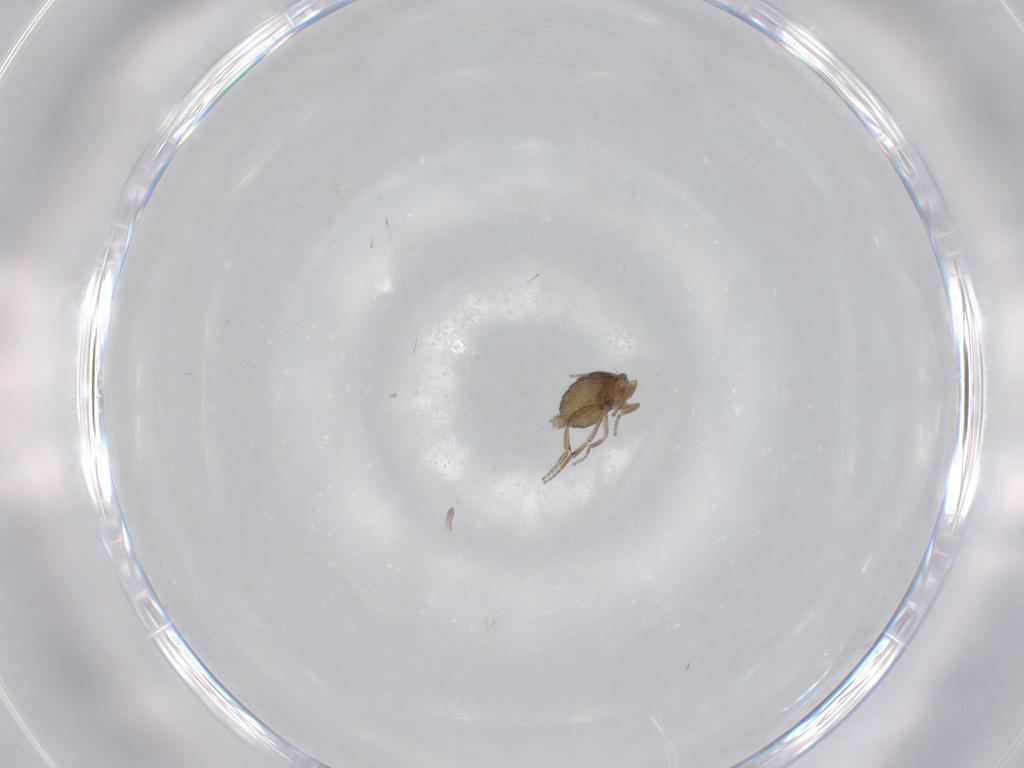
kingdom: Animalia
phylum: Arthropoda
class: Insecta
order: Diptera
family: Phoridae
